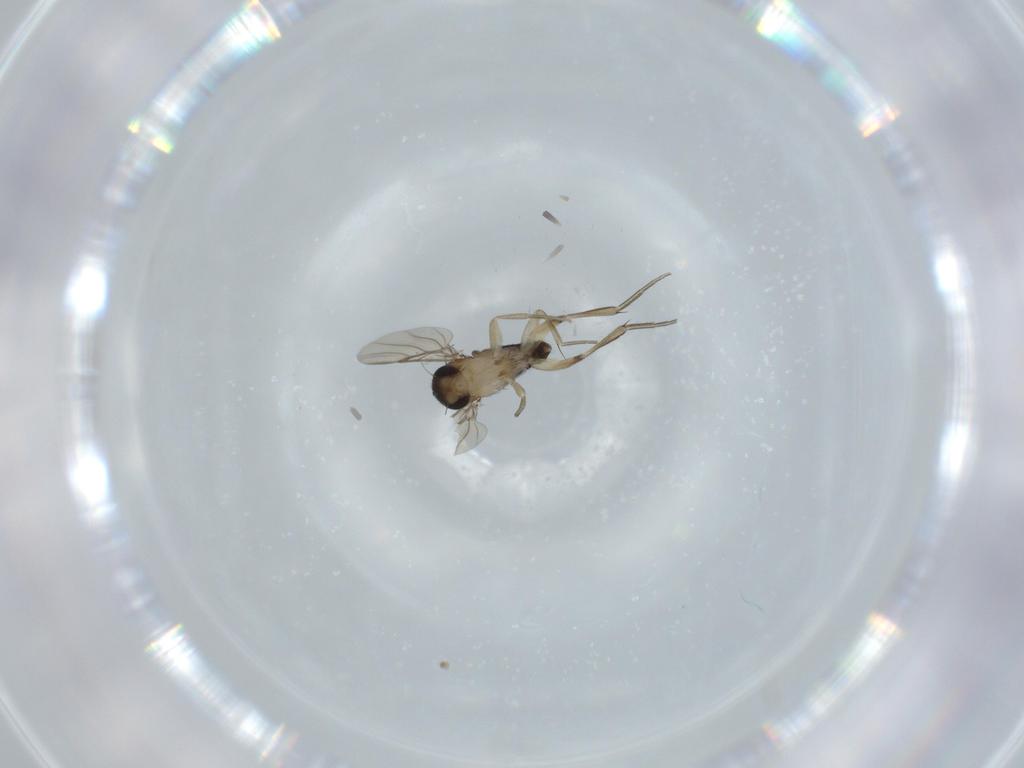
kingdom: Animalia
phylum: Arthropoda
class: Insecta
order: Diptera
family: Phoridae
